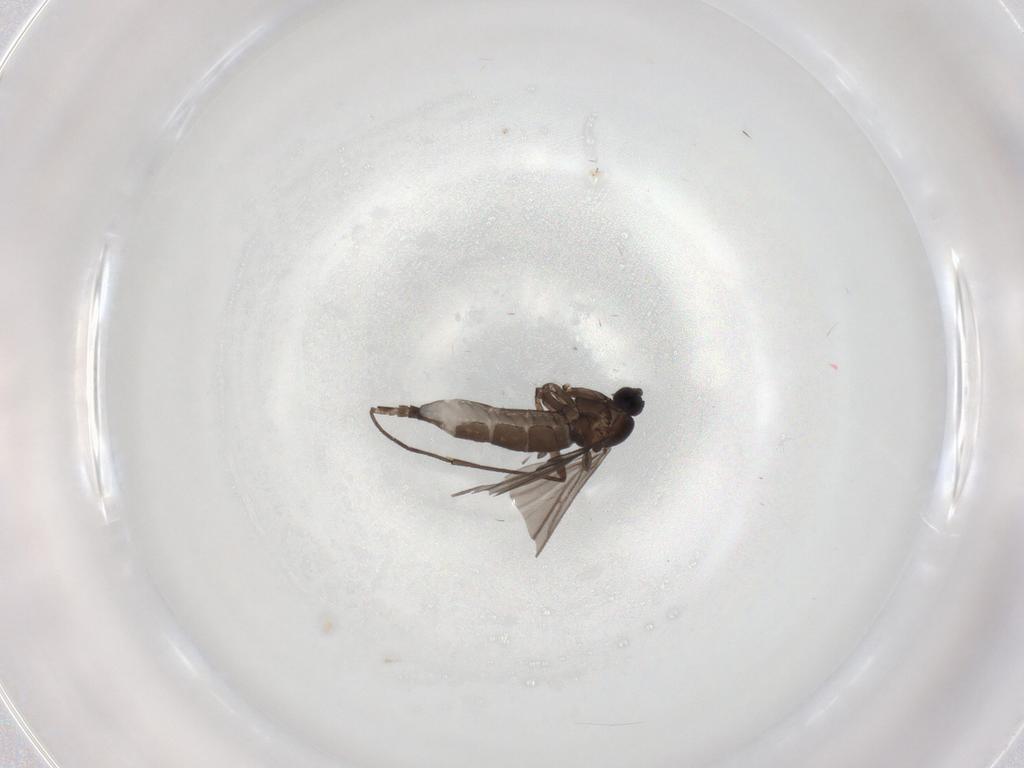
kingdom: Animalia
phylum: Arthropoda
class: Insecta
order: Diptera
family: Sciaridae
